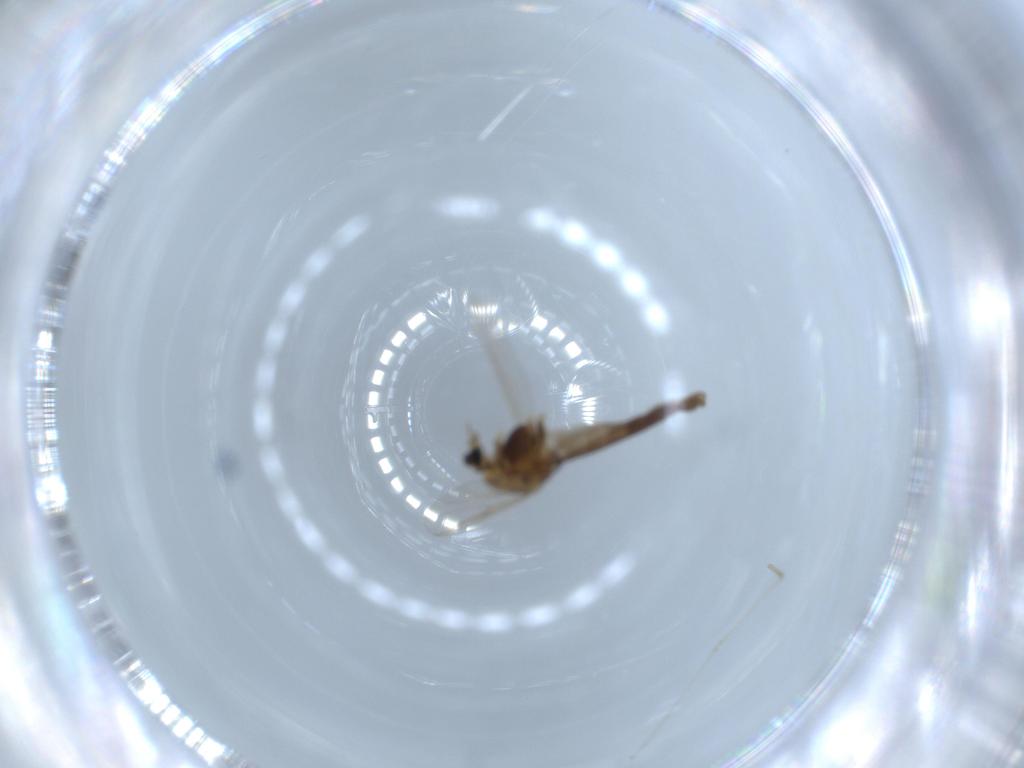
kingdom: Animalia
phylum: Arthropoda
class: Insecta
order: Diptera
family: Chironomidae
